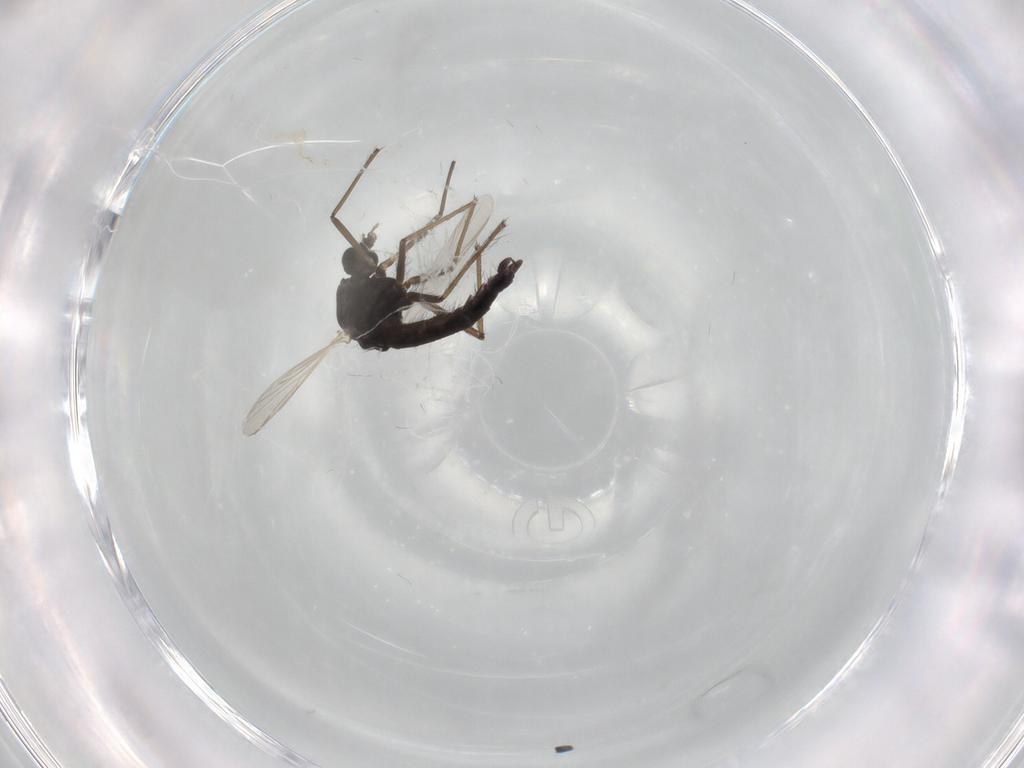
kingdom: Animalia
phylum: Arthropoda
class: Insecta
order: Diptera
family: Chironomidae
